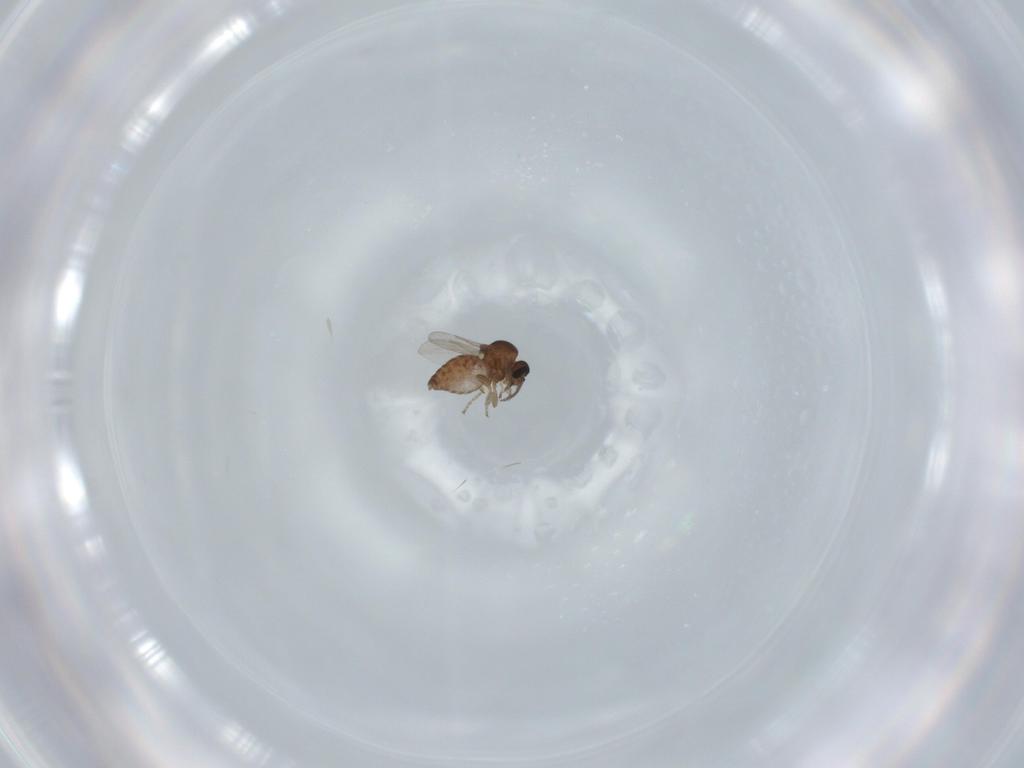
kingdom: Animalia
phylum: Arthropoda
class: Insecta
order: Diptera
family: Ceratopogonidae
